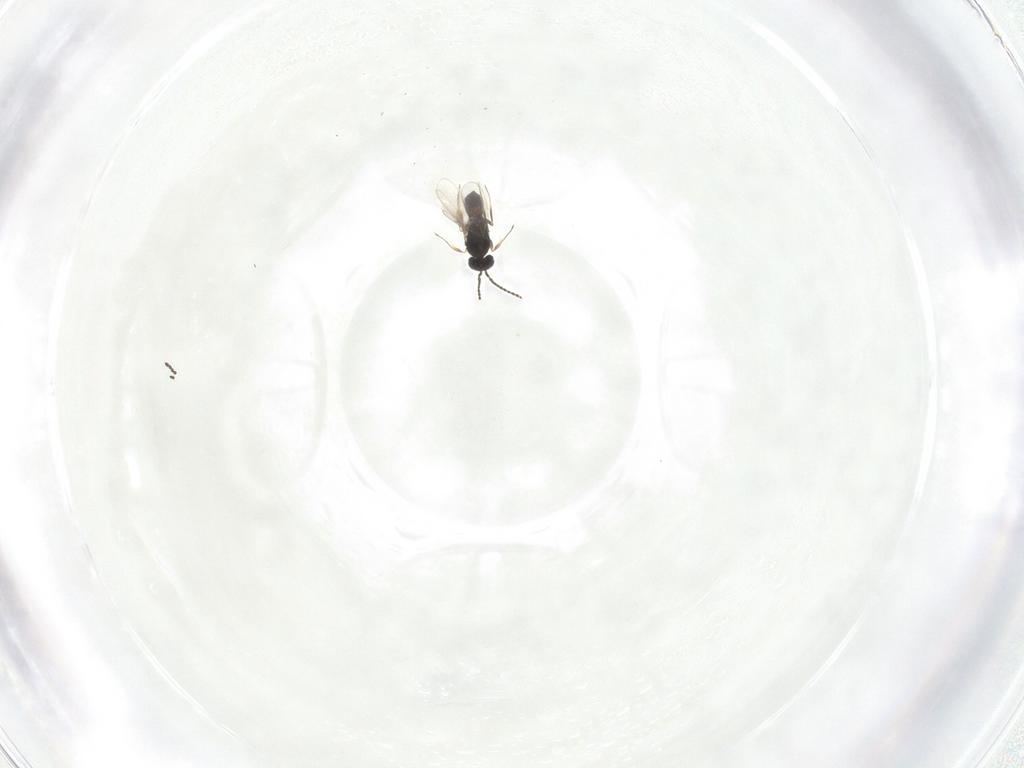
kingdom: Animalia
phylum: Arthropoda
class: Insecta
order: Hymenoptera
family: Scelionidae
